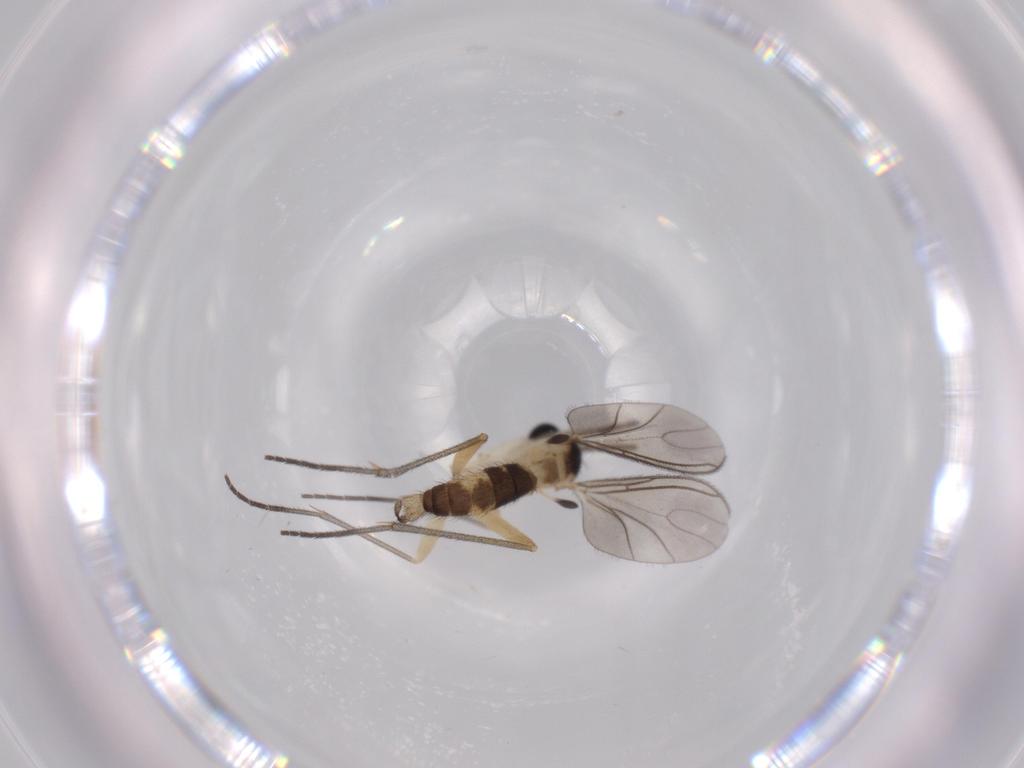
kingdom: Animalia
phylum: Arthropoda
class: Insecta
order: Diptera
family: Sciaridae
